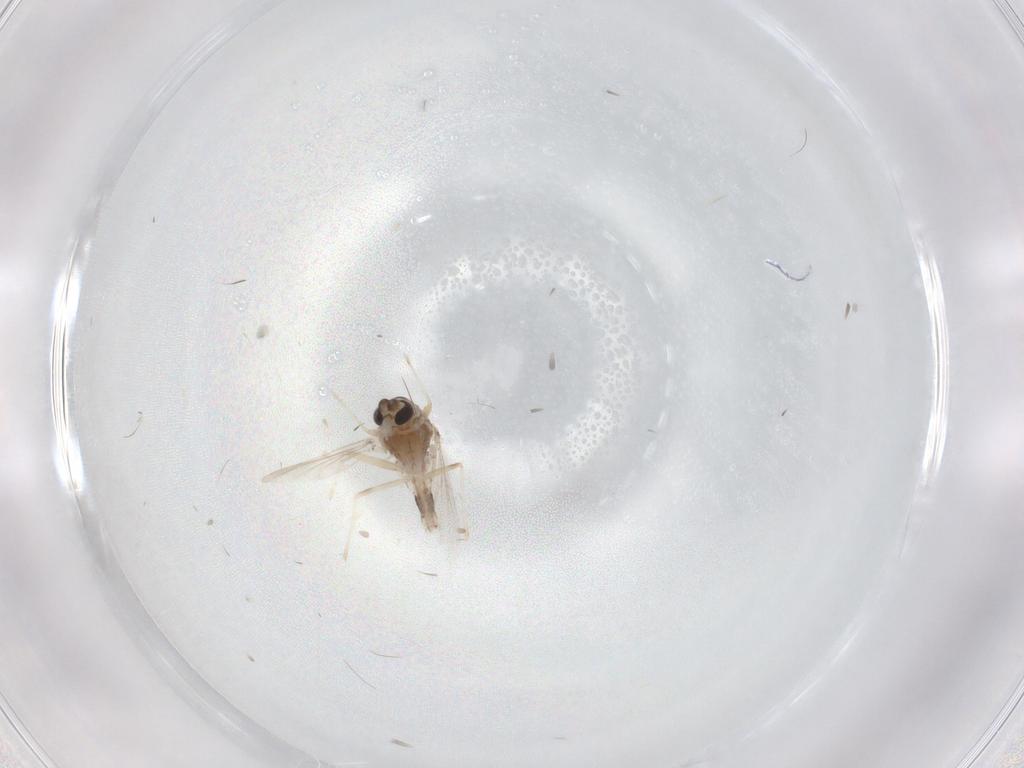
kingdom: Animalia
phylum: Arthropoda
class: Insecta
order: Diptera
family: Chironomidae
